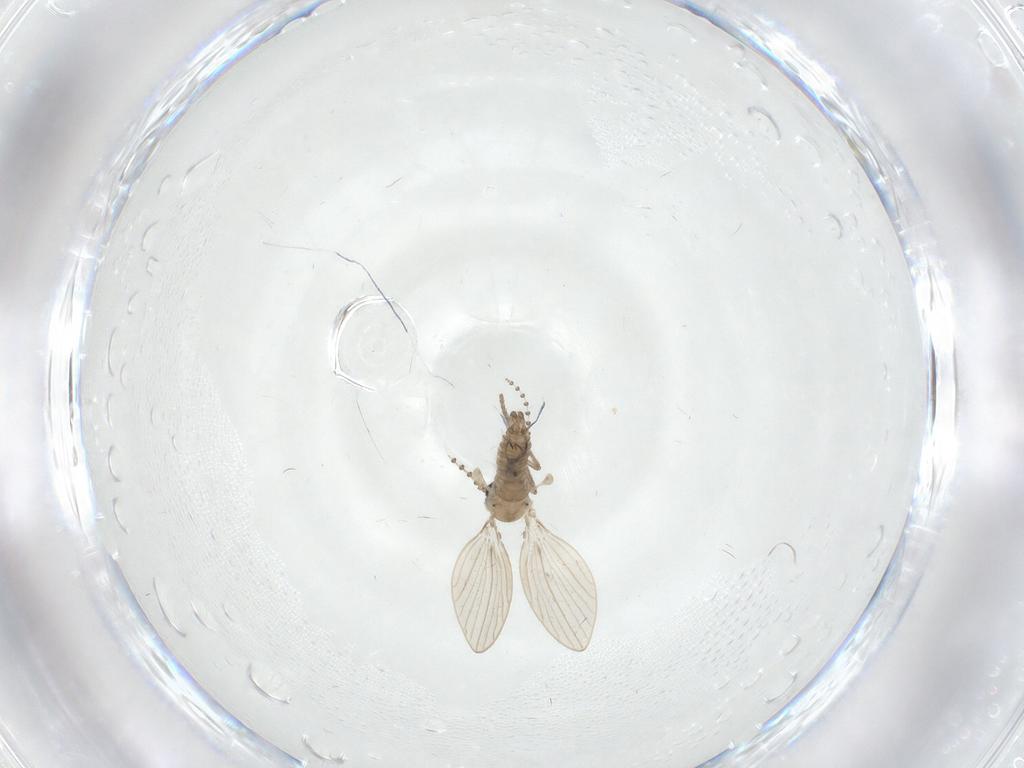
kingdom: Animalia
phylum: Arthropoda
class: Insecta
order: Diptera
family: Psychodidae
